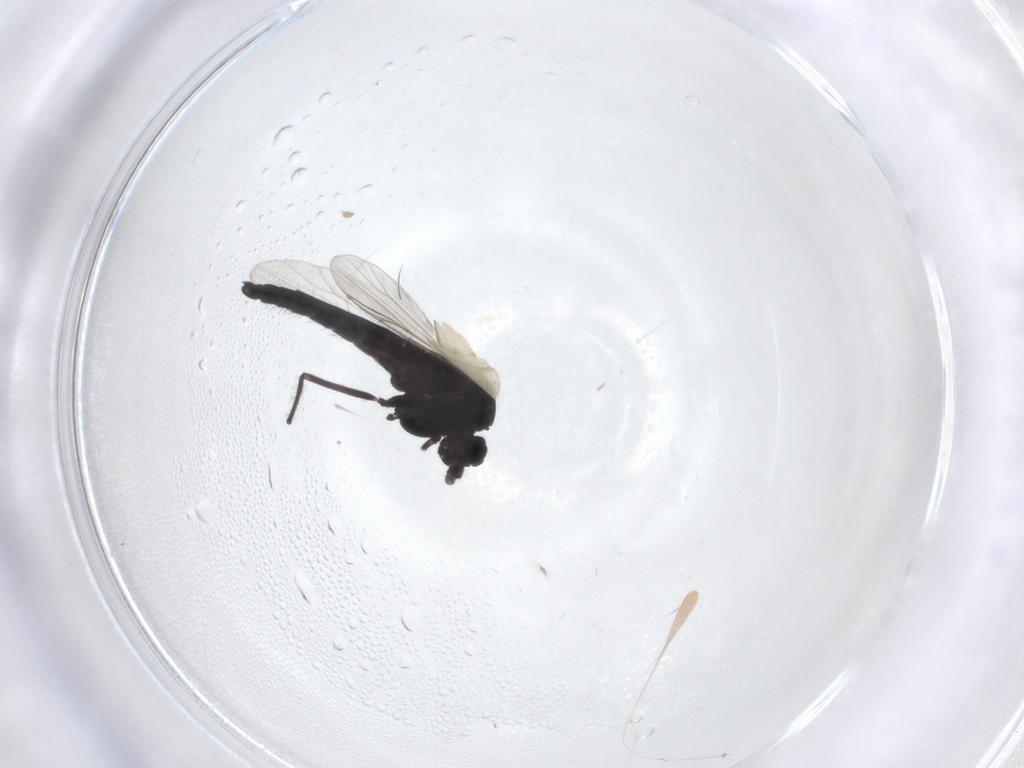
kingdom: Animalia
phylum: Arthropoda
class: Insecta
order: Diptera
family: Chironomidae
